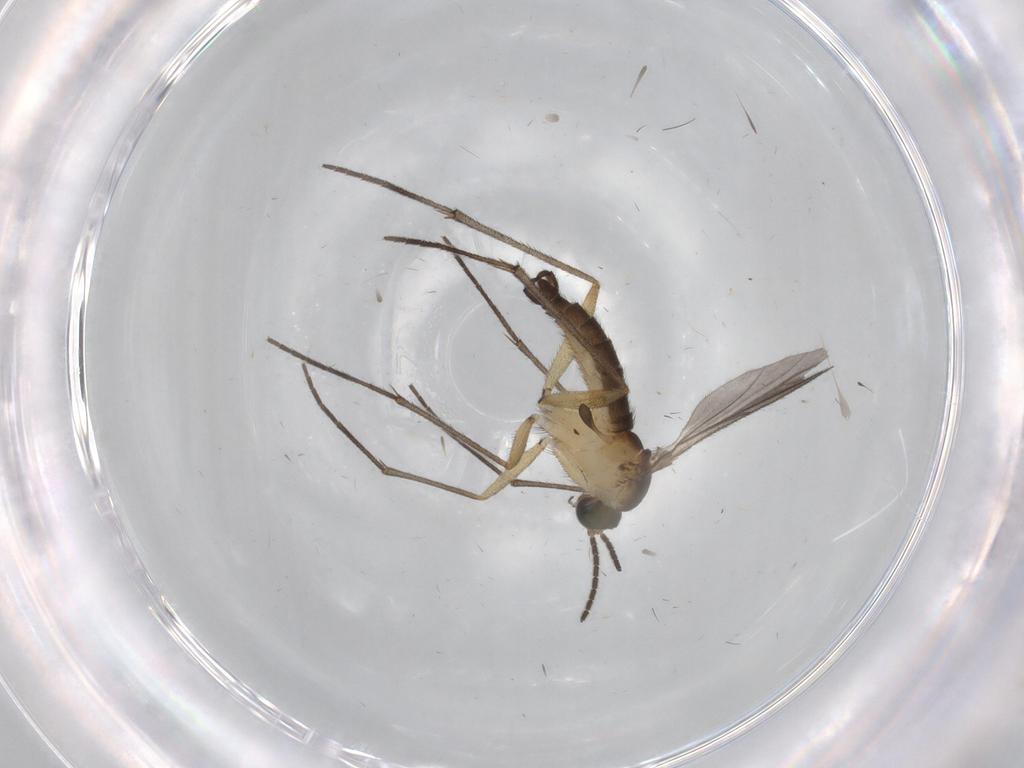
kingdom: Animalia
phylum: Arthropoda
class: Insecta
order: Diptera
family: Sciaridae
